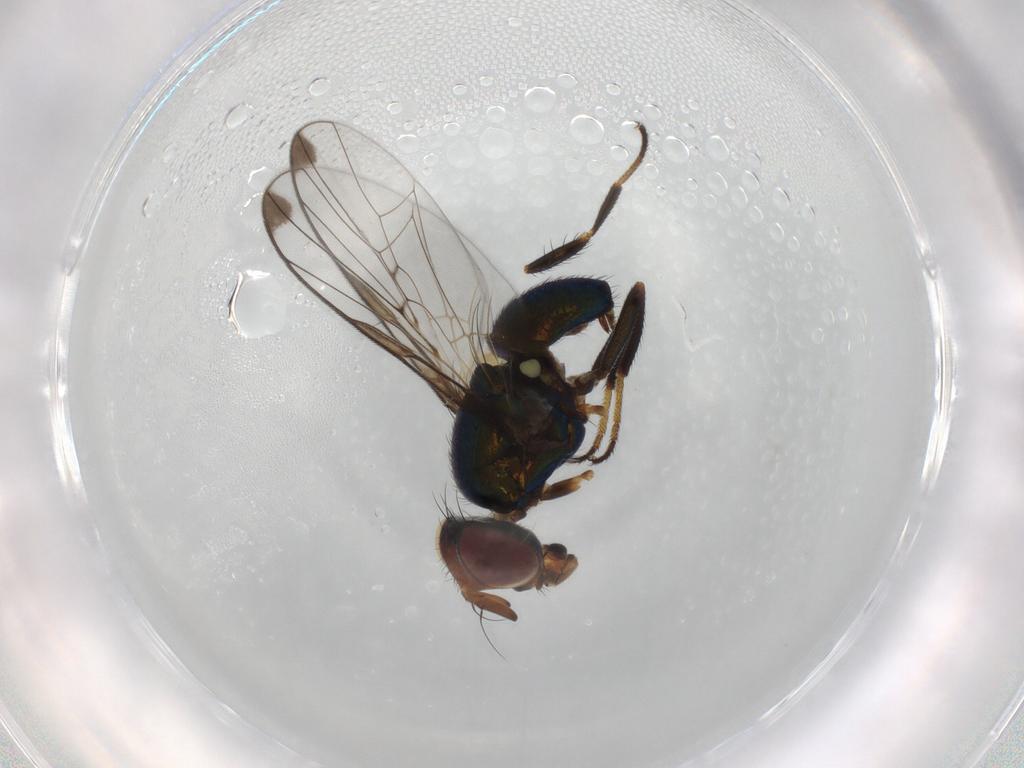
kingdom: Animalia
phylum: Arthropoda
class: Insecta
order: Diptera
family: Platystomatidae
